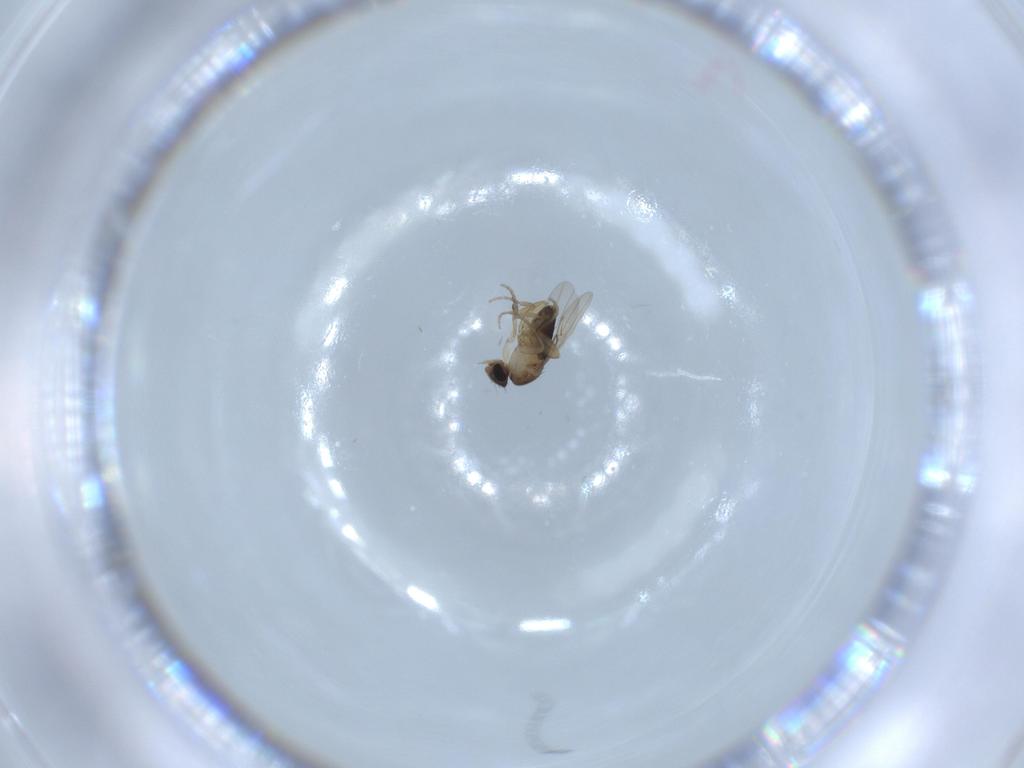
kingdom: Animalia
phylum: Arthropoda
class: Insecta
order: Diptera
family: Phoridae
